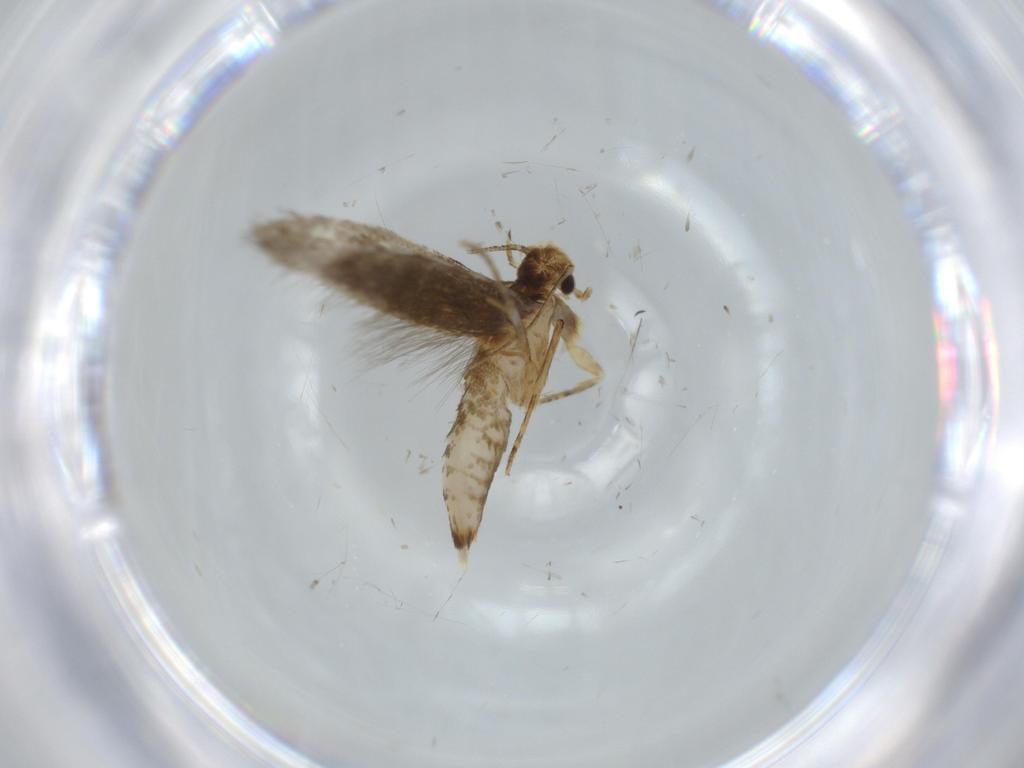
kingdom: Animalia
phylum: Arthropoda
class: Insecta
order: Lepidoptera
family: Tineidae
